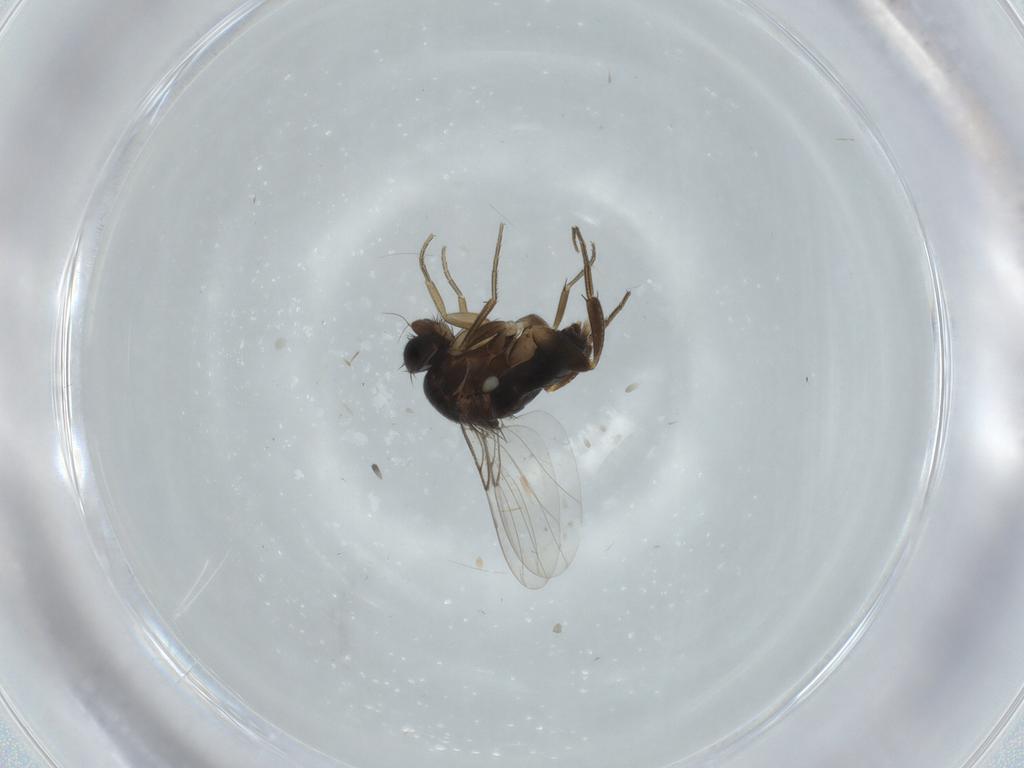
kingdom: Animalia
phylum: Arthropoda
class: Insecta
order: Diptera
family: Phoridae
